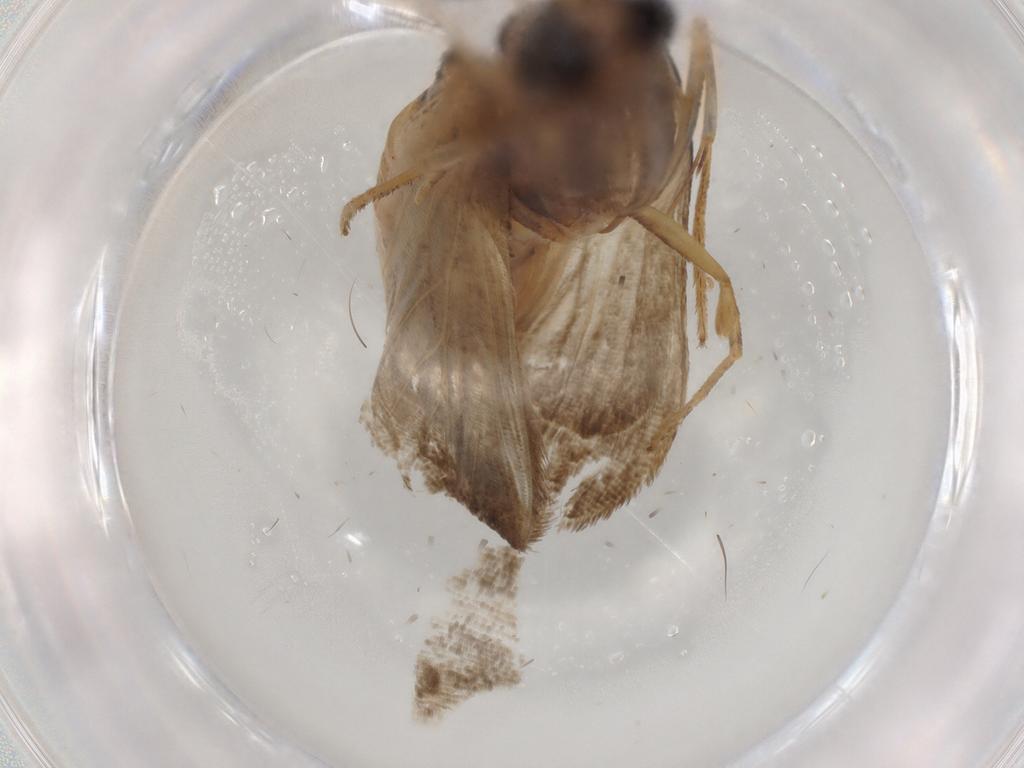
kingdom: Animalia
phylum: Arthropoda
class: Insecta
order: Lepidoptera
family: Pyralidae
